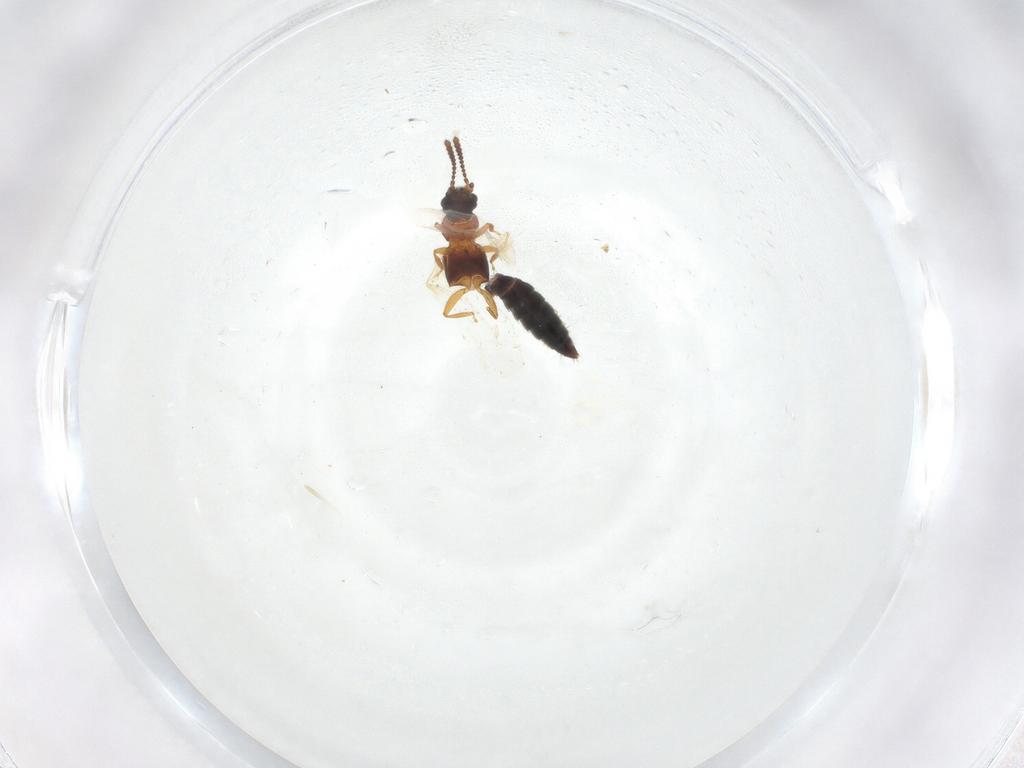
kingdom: Animalia
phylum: Arthropoda
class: Insecta
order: Coleoptera
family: Staphylinidae
